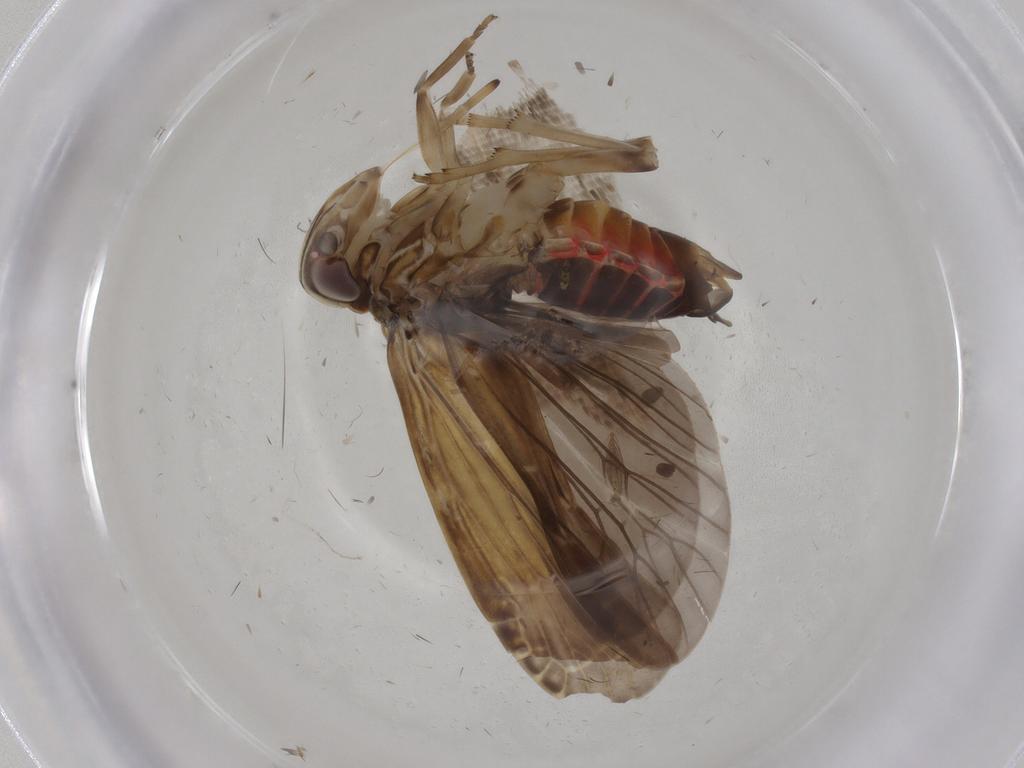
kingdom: Animalia
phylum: Arthropoda
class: Insecta
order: Hemiptera
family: Achilidae
